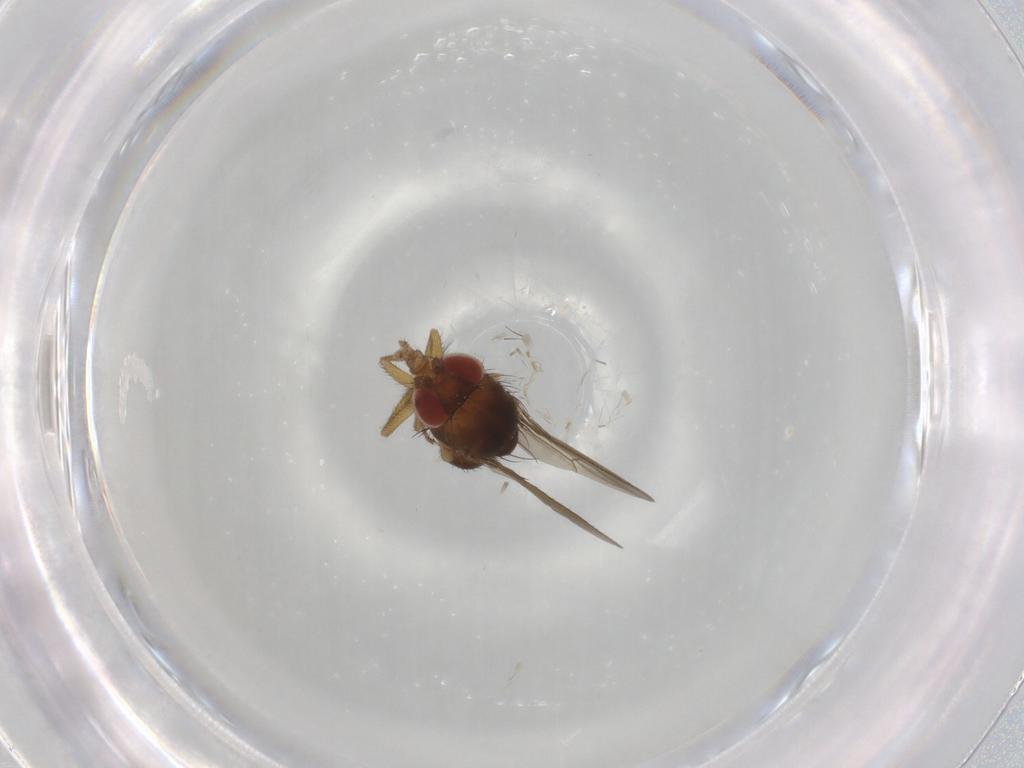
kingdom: Animalia
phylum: Arthropoda
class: Insecta
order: Diptera
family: Drosophilidae
